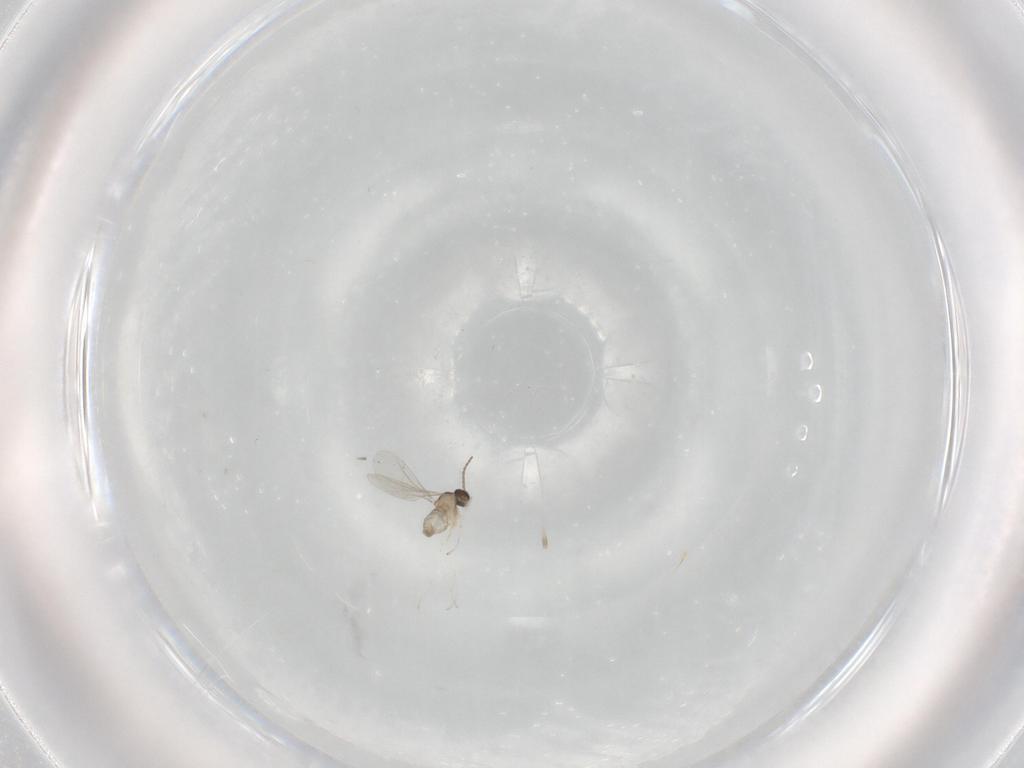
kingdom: Animalia
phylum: Arthropoda
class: Insecta
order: Diptera
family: Cecidomyiidae
